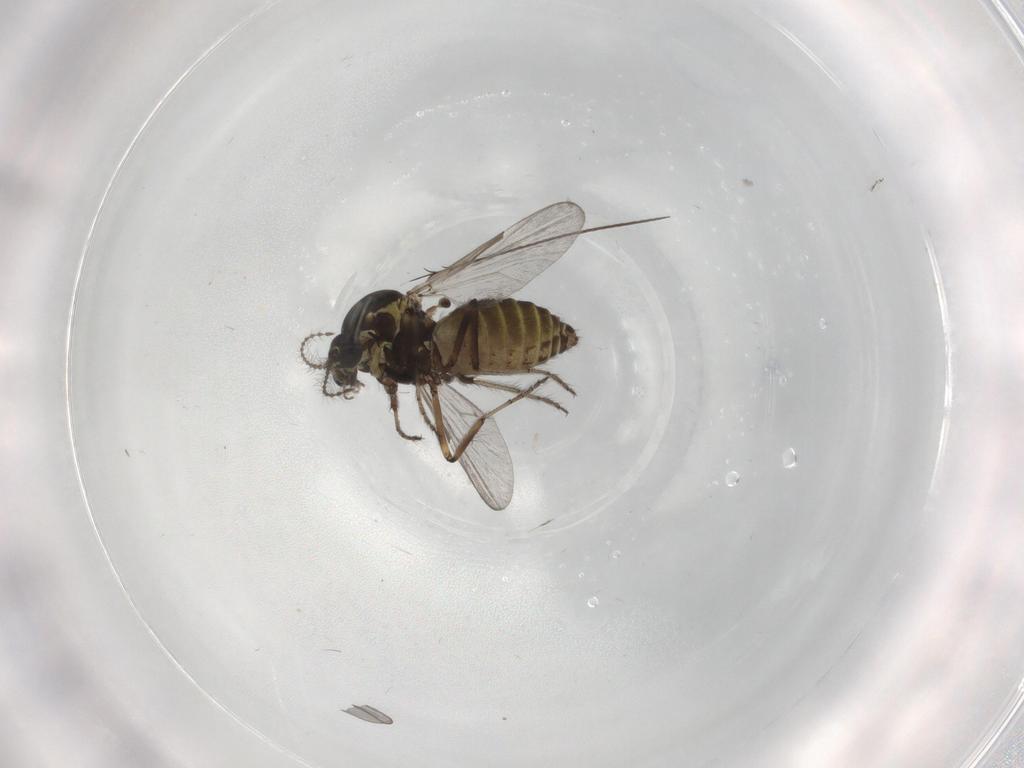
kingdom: Animalia
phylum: Arthropoda
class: Insecta
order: Diptera
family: Ceratopogonidae
